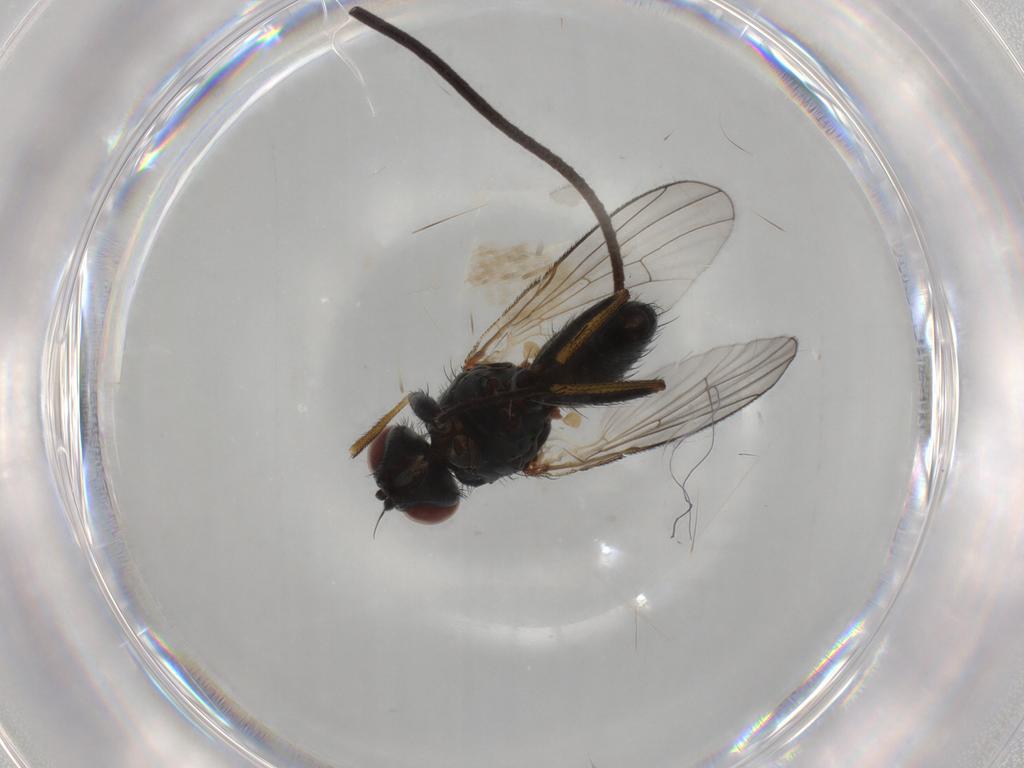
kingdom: Animalia
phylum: Arthropoda
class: Insecta
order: Diptera
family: Muscidae
